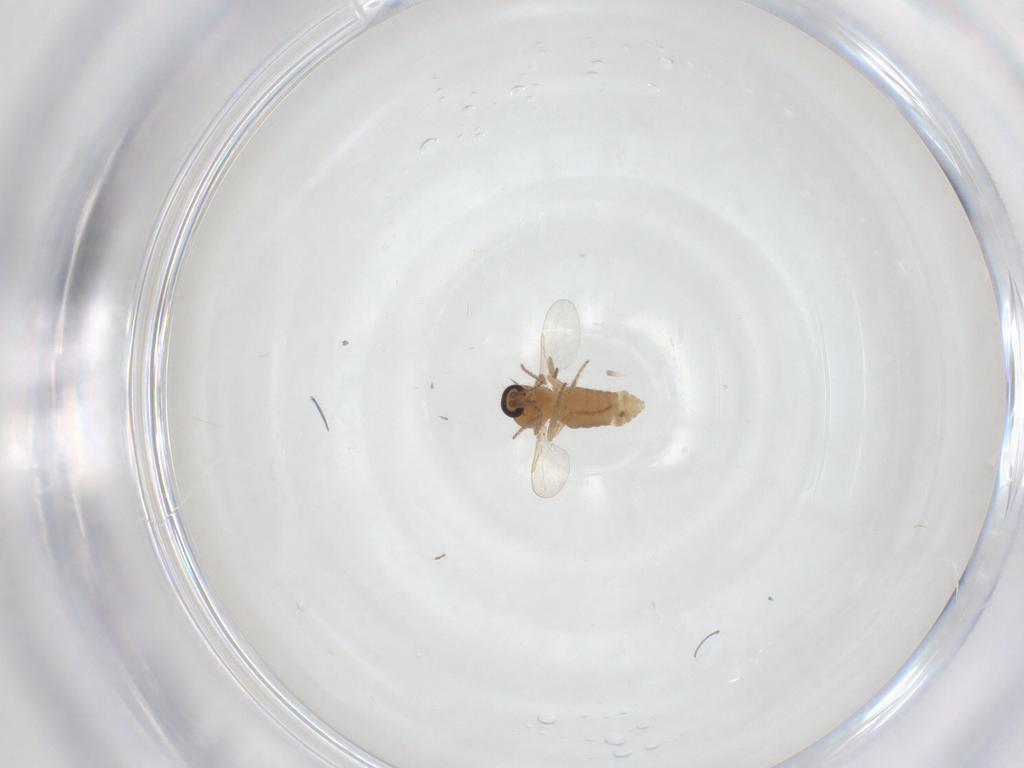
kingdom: Animalia
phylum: Arthropoda
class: Insecta
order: Diptera
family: Ceratopogonidae
